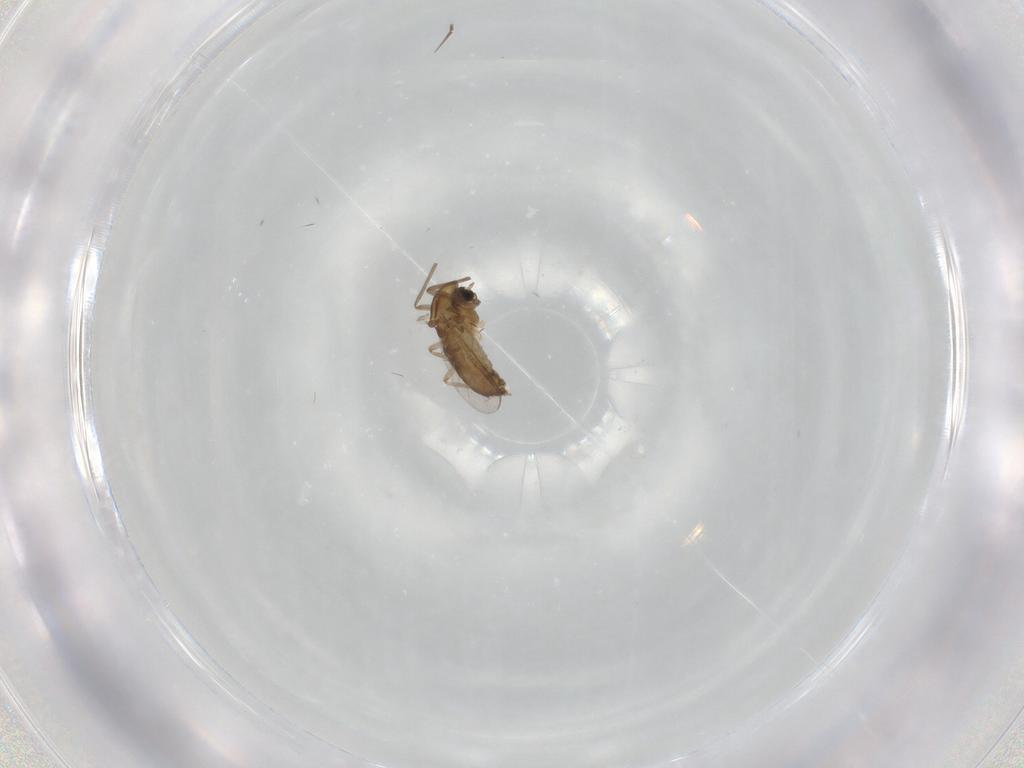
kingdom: Animalia
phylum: Arthropoda
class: Insecta
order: Diptera
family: Chironomidae
